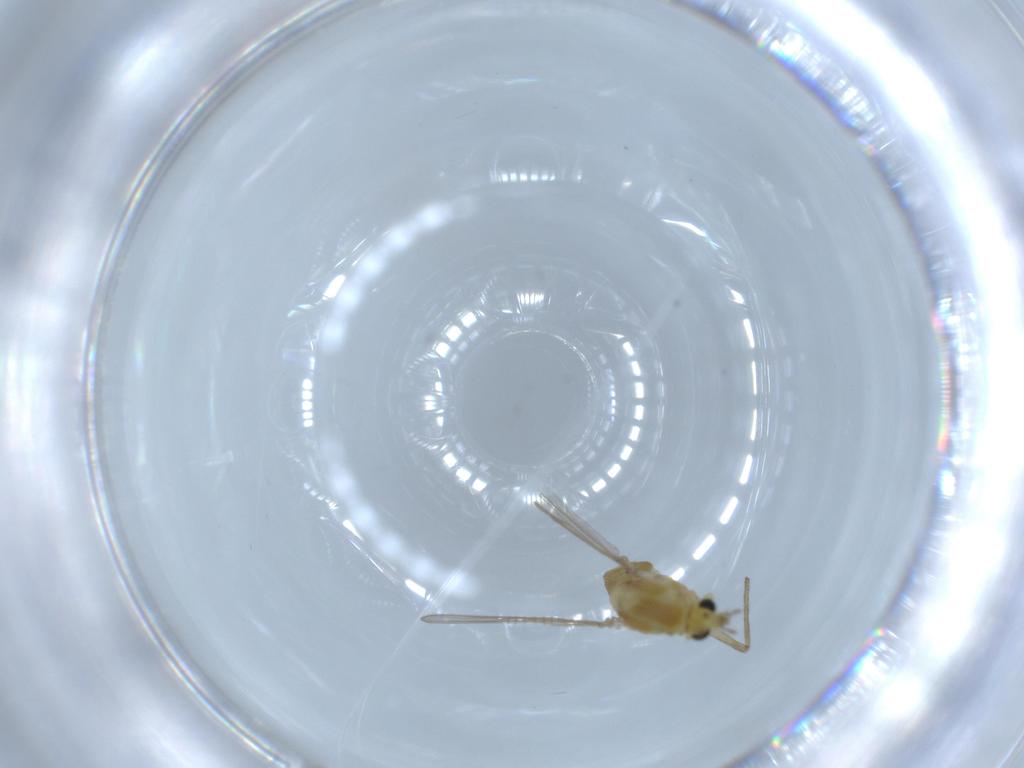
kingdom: Animalia
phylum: Arthropoda
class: Insecta
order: Diptera
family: Chironomidae
